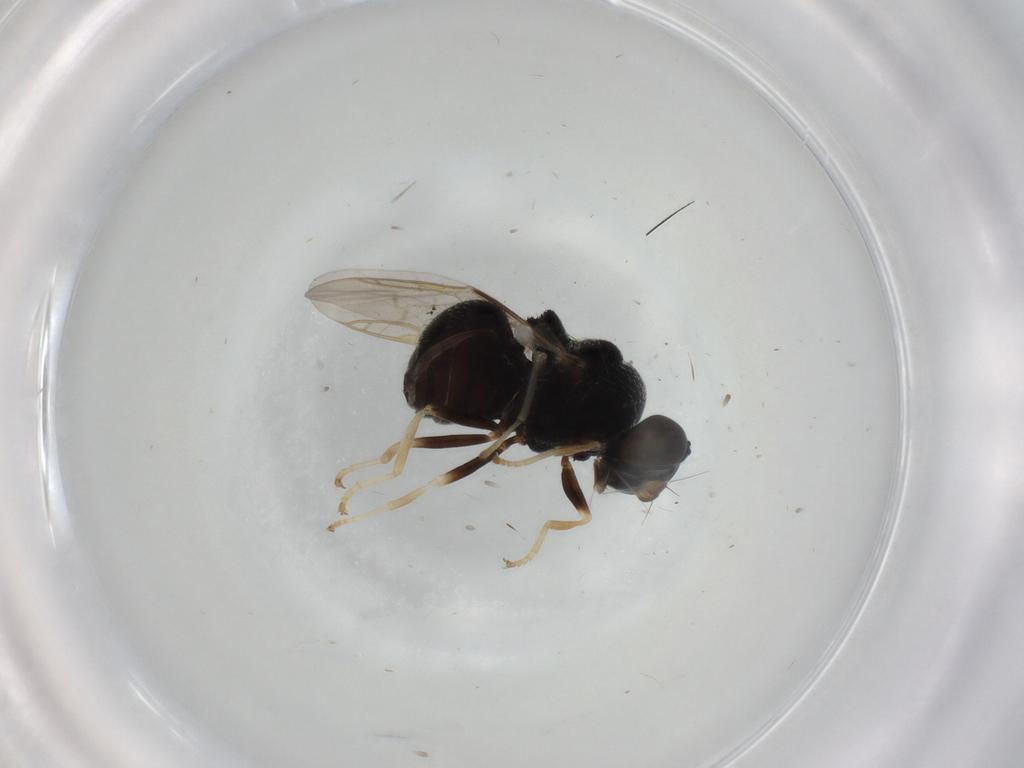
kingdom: Animalia
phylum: Arthropoda
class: Insecta
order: Diptera
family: Stratiomyidae
